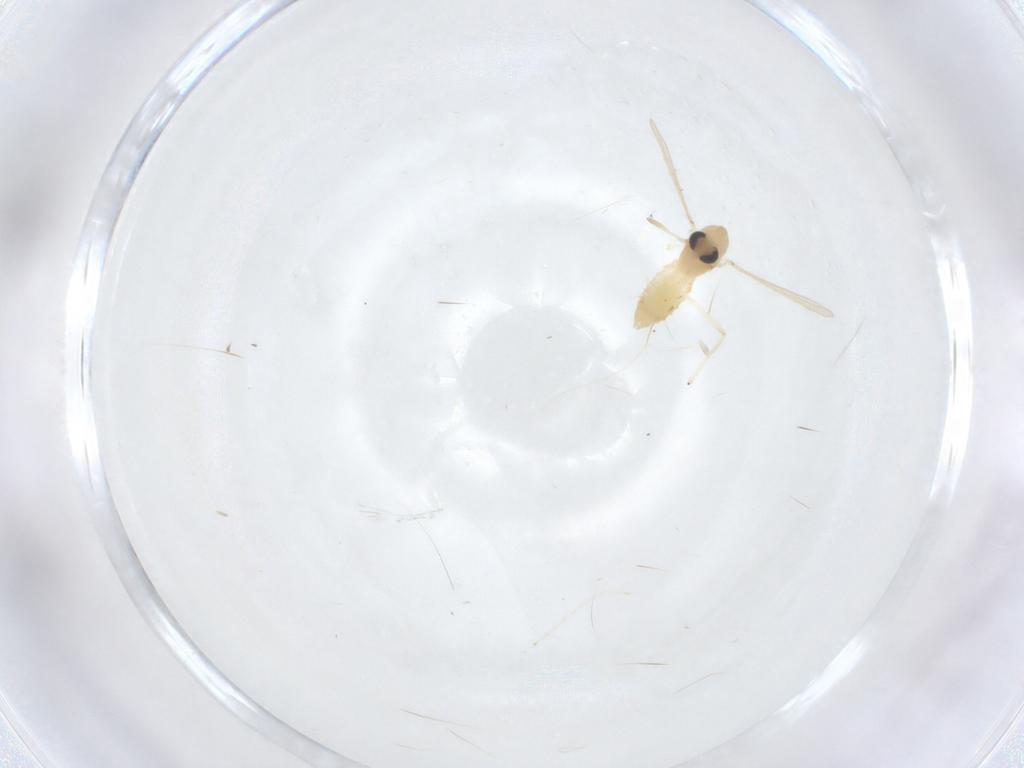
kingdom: Animalia
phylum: Arthropoda
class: Insecta
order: Diptera
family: Chironomidae
